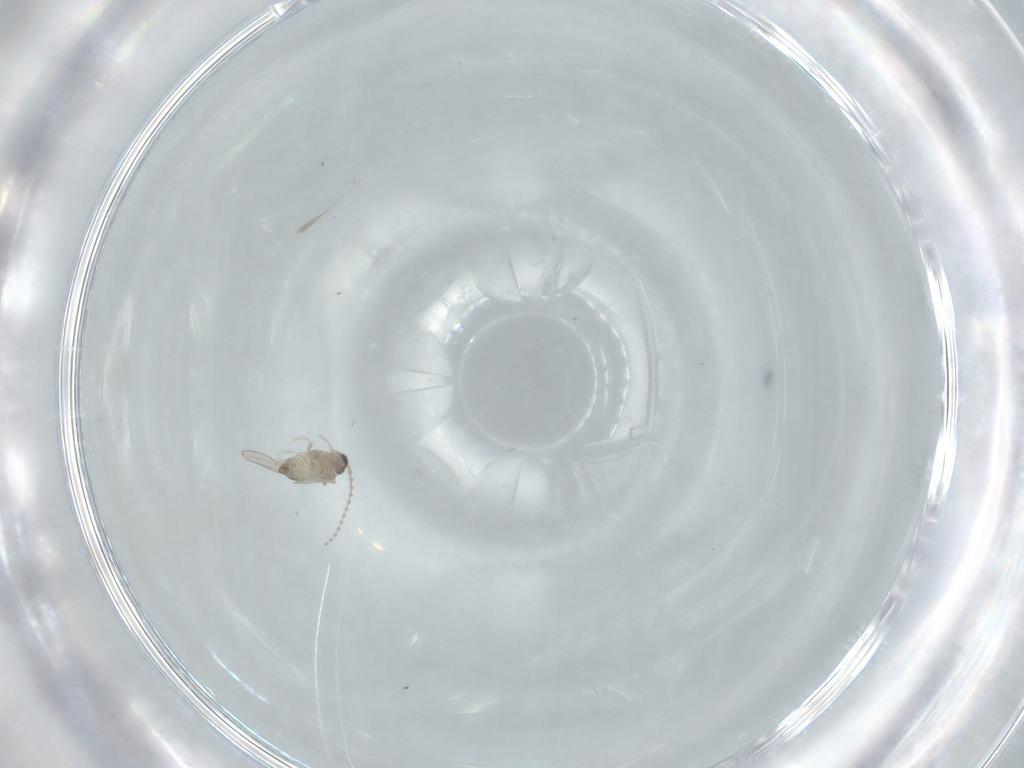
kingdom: Animalia
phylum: Arthropoda
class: Insecta
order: Diptera
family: Cecidomyiidae
